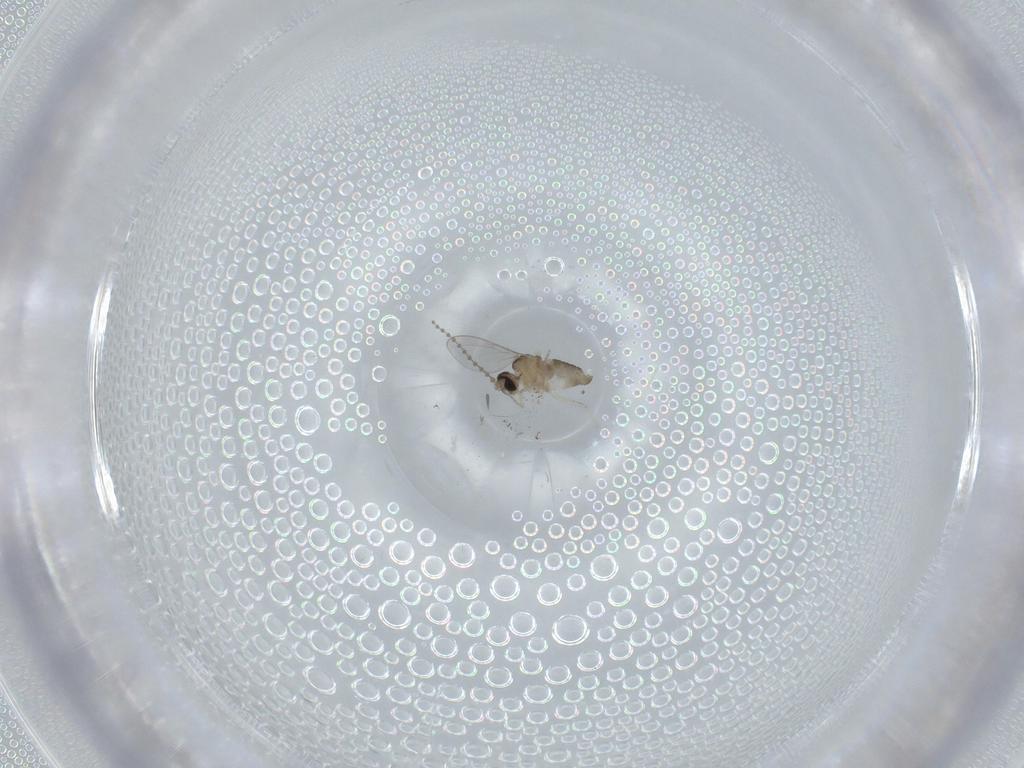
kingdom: Animalia
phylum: Arthropoda
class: Insecta
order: Diptera
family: Cecidomyiidae
